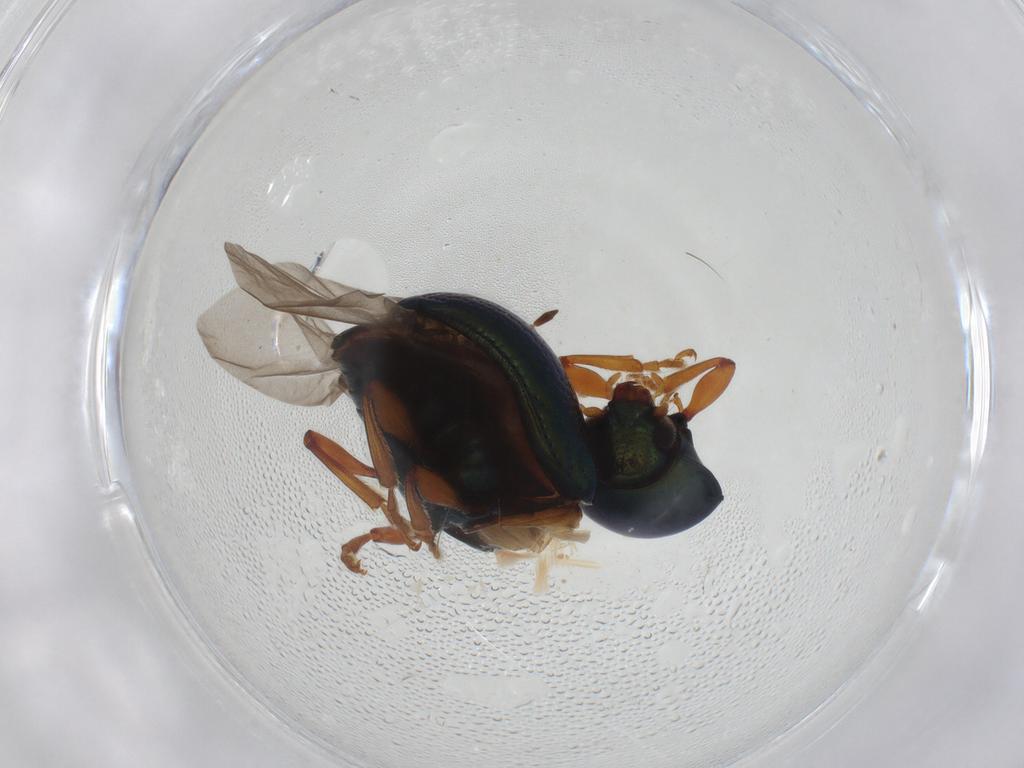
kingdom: Animalia
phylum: Arthropoda
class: Insecta
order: Coleoptera
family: Chrysomelidae
